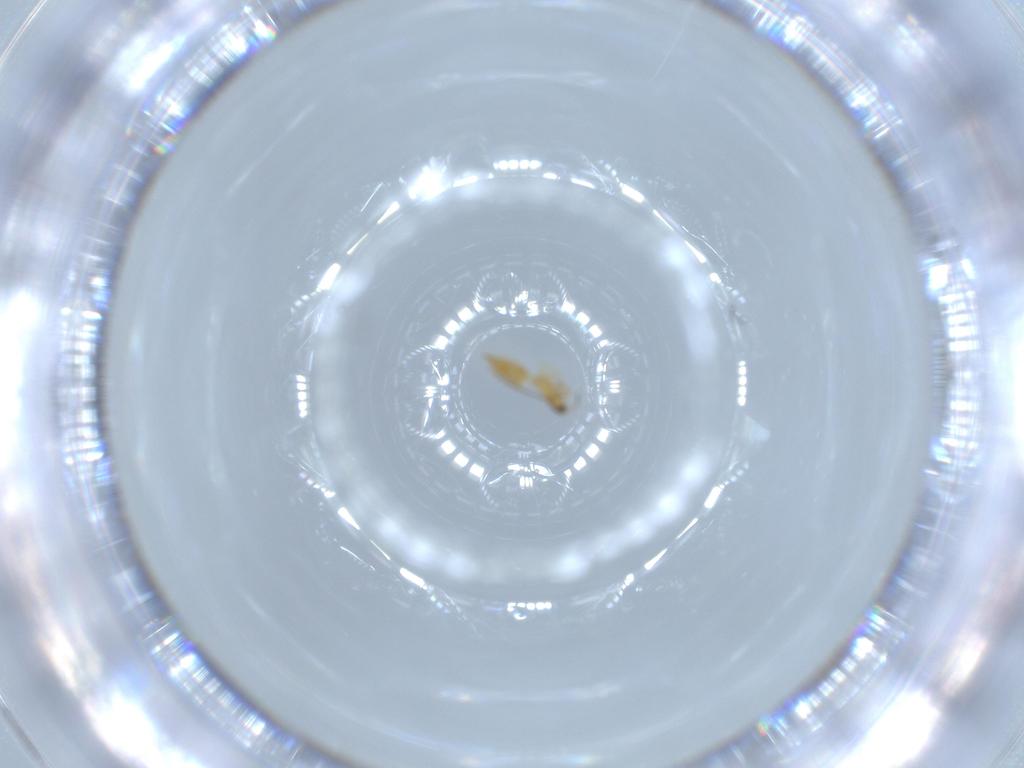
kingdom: Animalia
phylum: Arthropoda
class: Insecta
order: Thysanoptera
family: Thripidae
